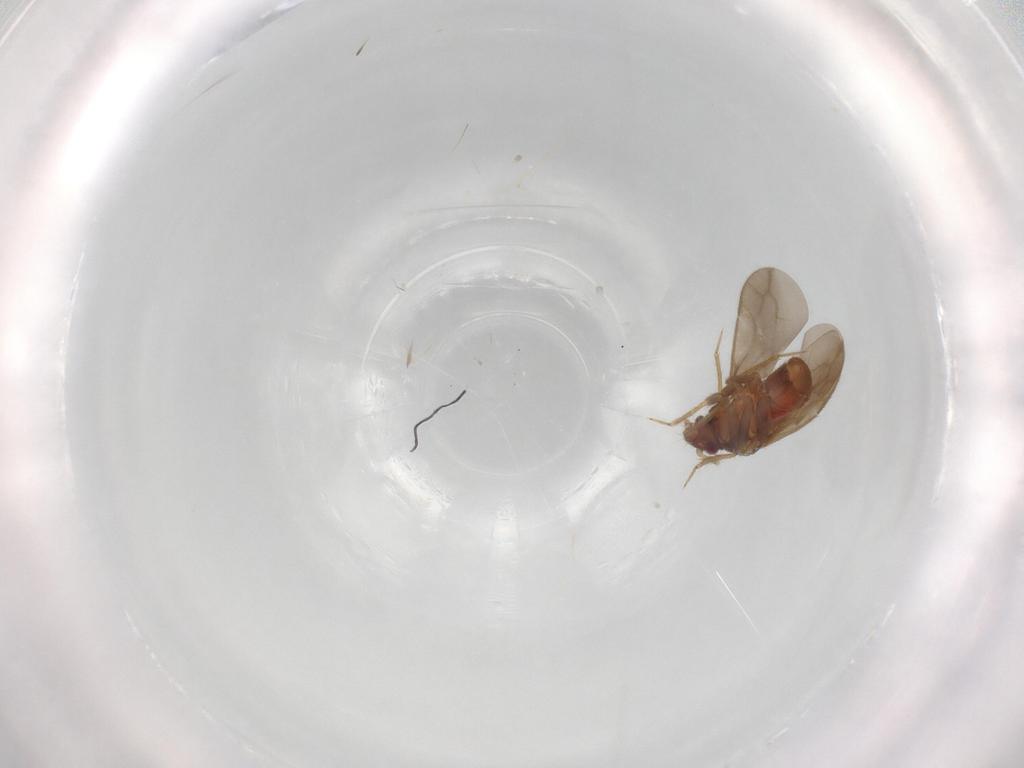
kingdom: Animalia
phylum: Arthropoda
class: Insecta
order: Hemiptera
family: Ceratocombidae
